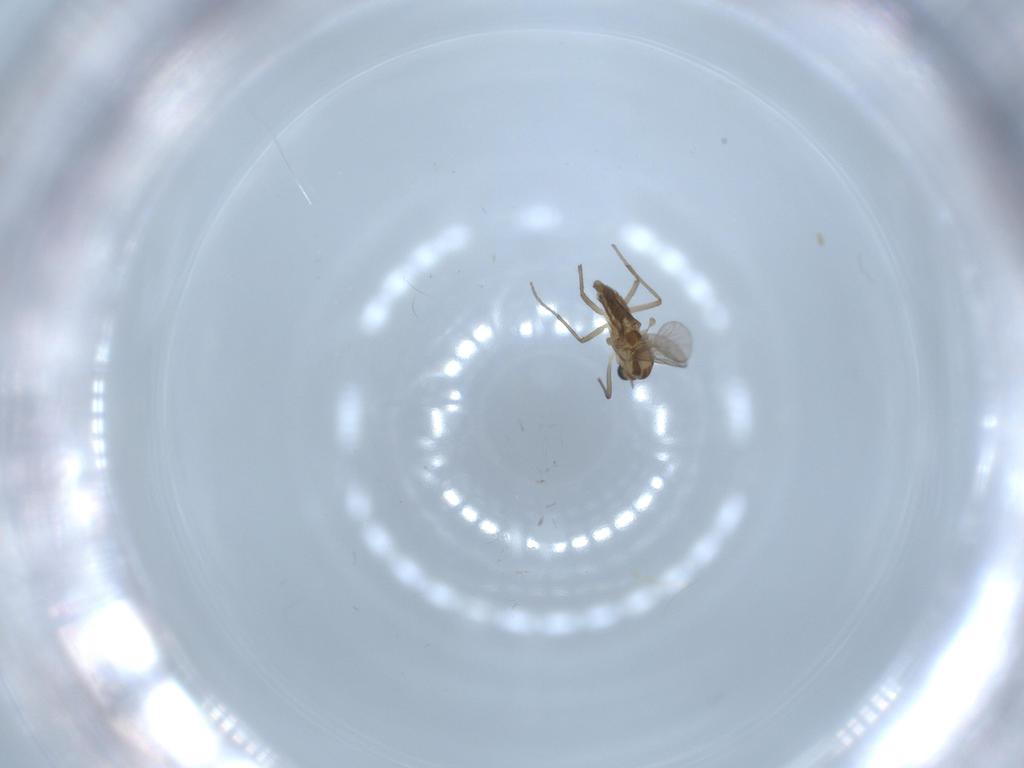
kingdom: Animalia
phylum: Arthropoda
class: Insecta
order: Diptera
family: Chironomidae
